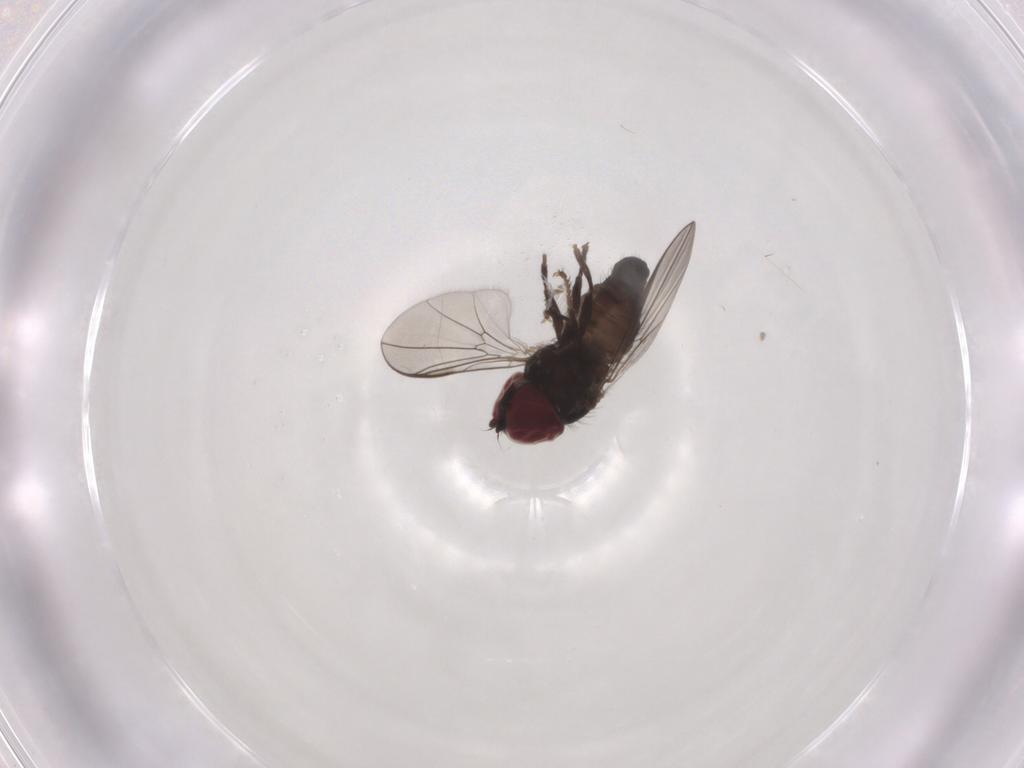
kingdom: Animalia
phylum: Arthropoda
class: Insecta
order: Diptera
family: Pipunculidae
